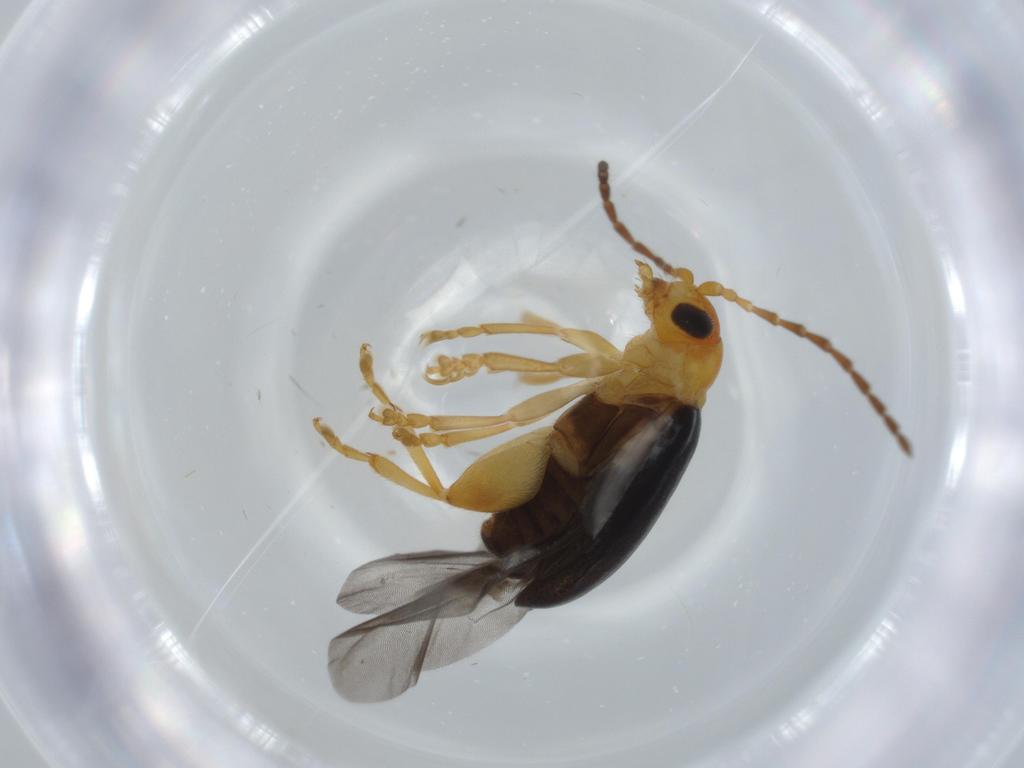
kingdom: Animalia
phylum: Arthropoda
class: Insecta
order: Coleoptera
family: Chrysomelidae
